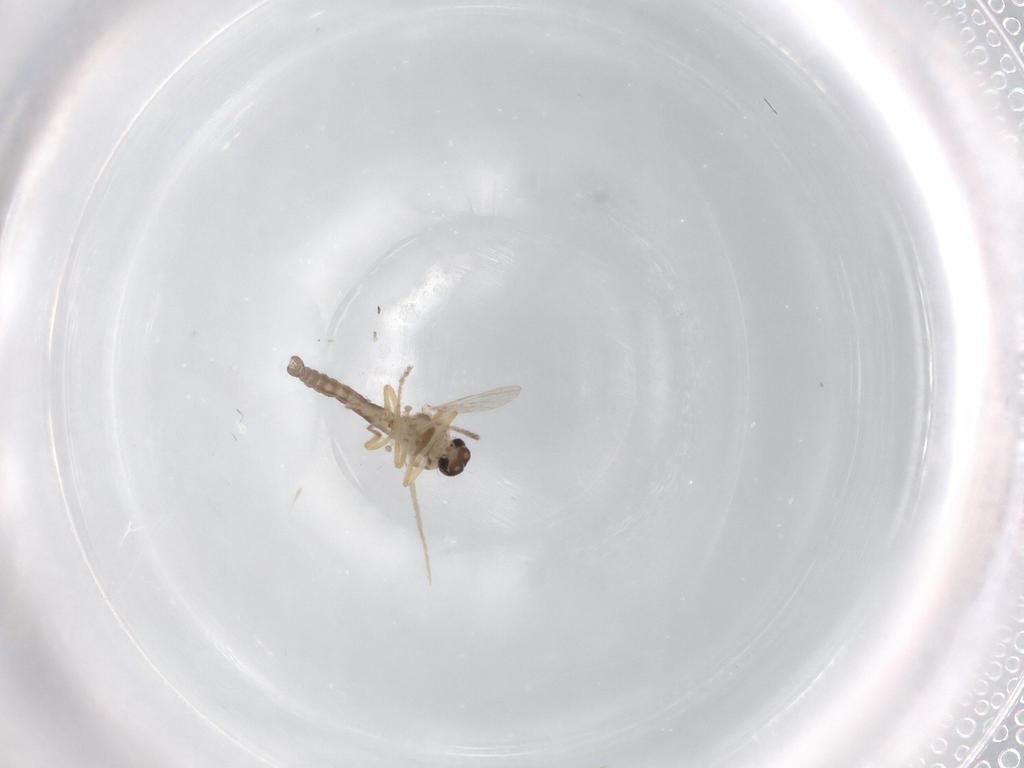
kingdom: Animalia
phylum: Arthropoda
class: Insecta
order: Diptera
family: Ceratopogonidae
